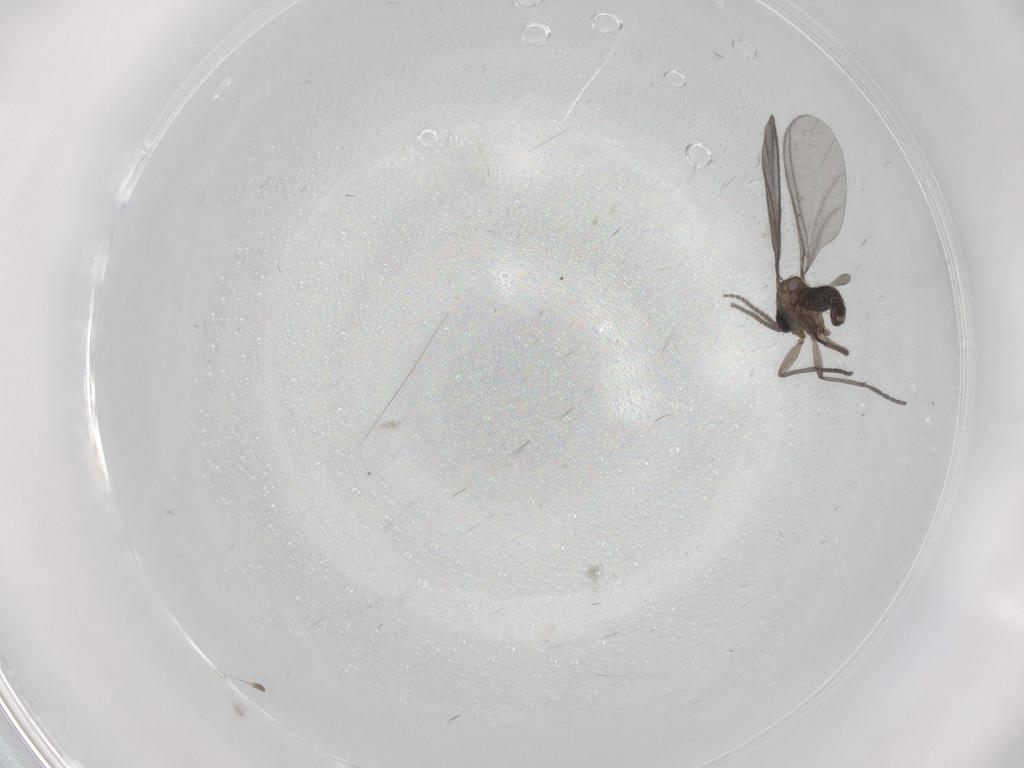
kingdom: Animalia
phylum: Arthropoda
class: Insecta
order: Diptera
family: Sciaridae
